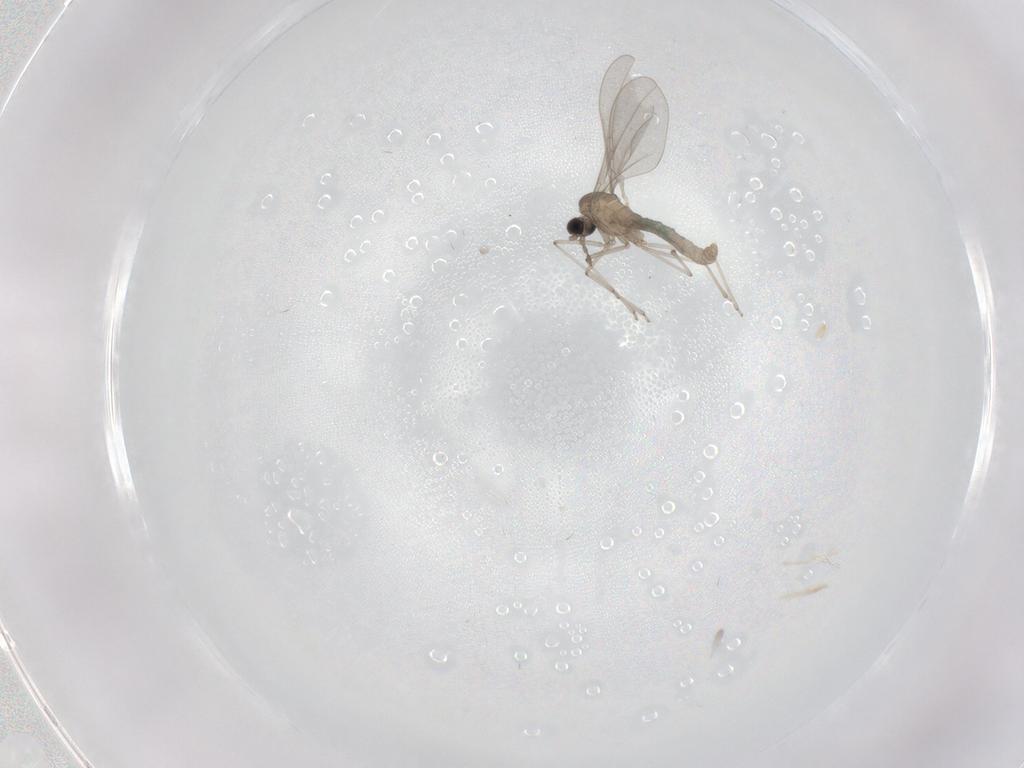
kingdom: Animalia
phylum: Arthropoda
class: Insecta
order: Diptera
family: Cecidomyiidae
